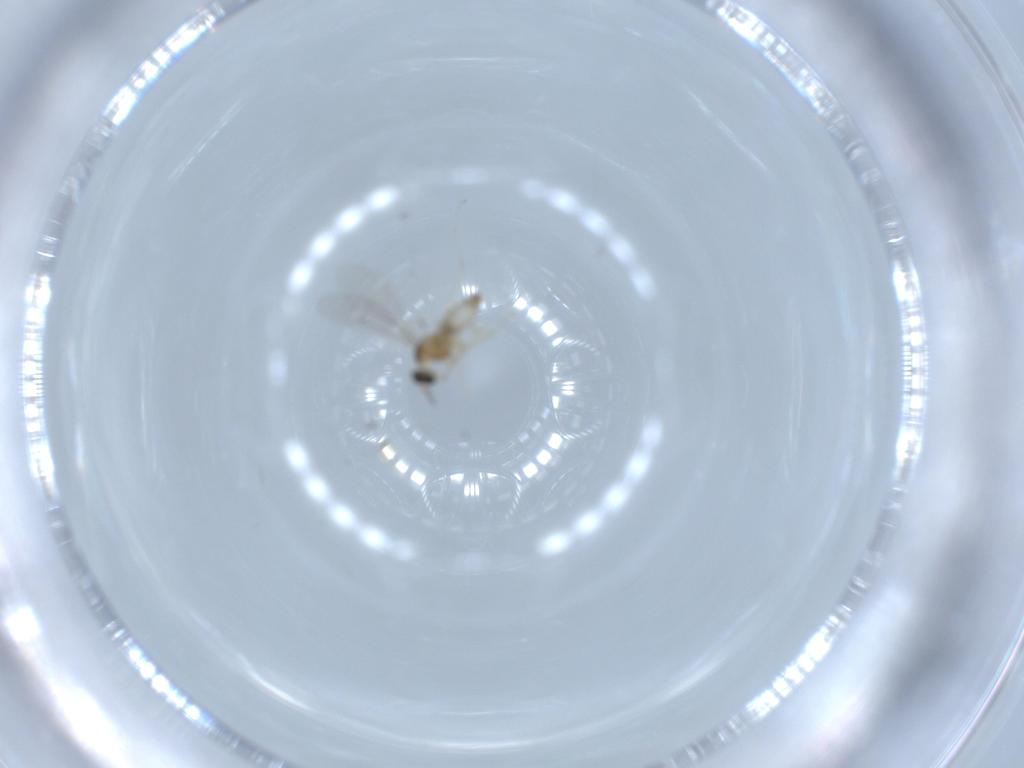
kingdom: Animalia
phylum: Arthropoda
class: Insecta
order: Diptera
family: Cecidomyiidae
